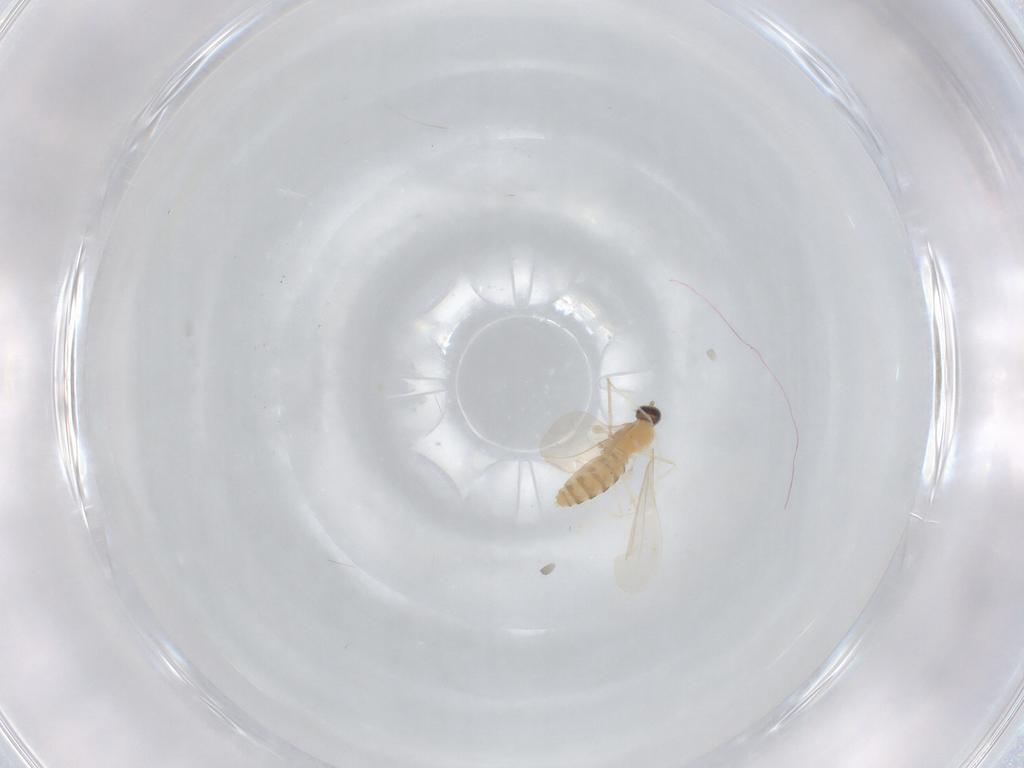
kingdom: Animalia
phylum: Arthropoda
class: Insecta
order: Diptera
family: Cecidomyiidae
